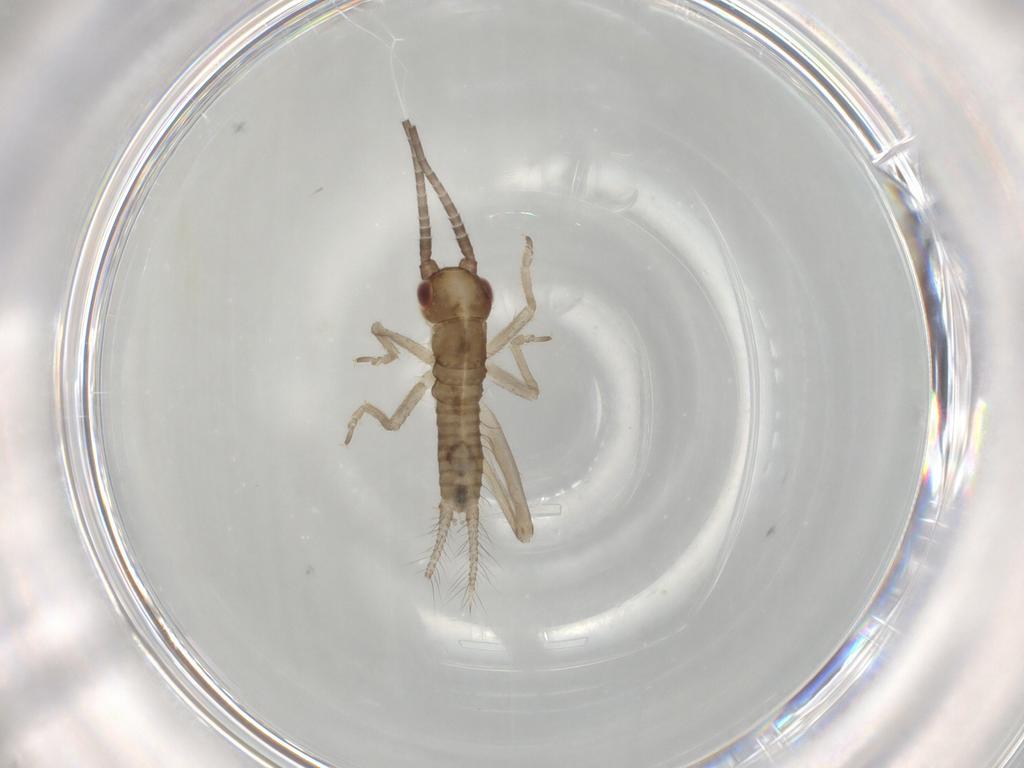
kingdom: Animalia
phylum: Arthropoda
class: Insecta
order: Orthoptera
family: Gryllidae
